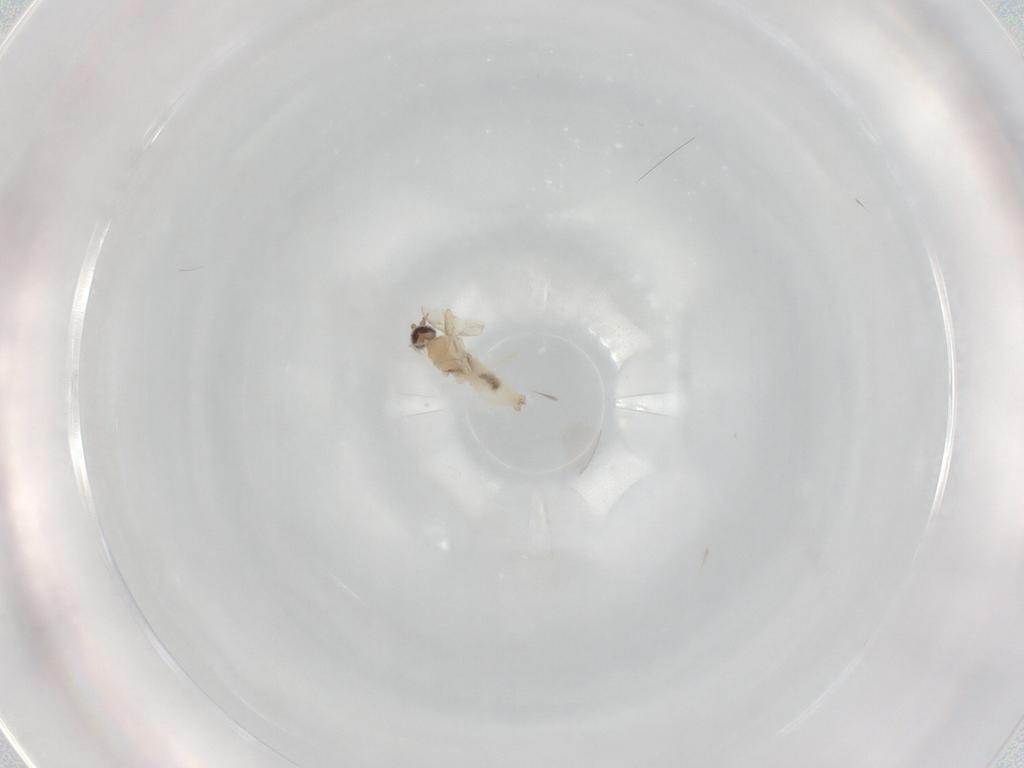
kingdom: Animalia
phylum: Arthropoda
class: Insecta
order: Diptera
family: Cecidomyiidae
